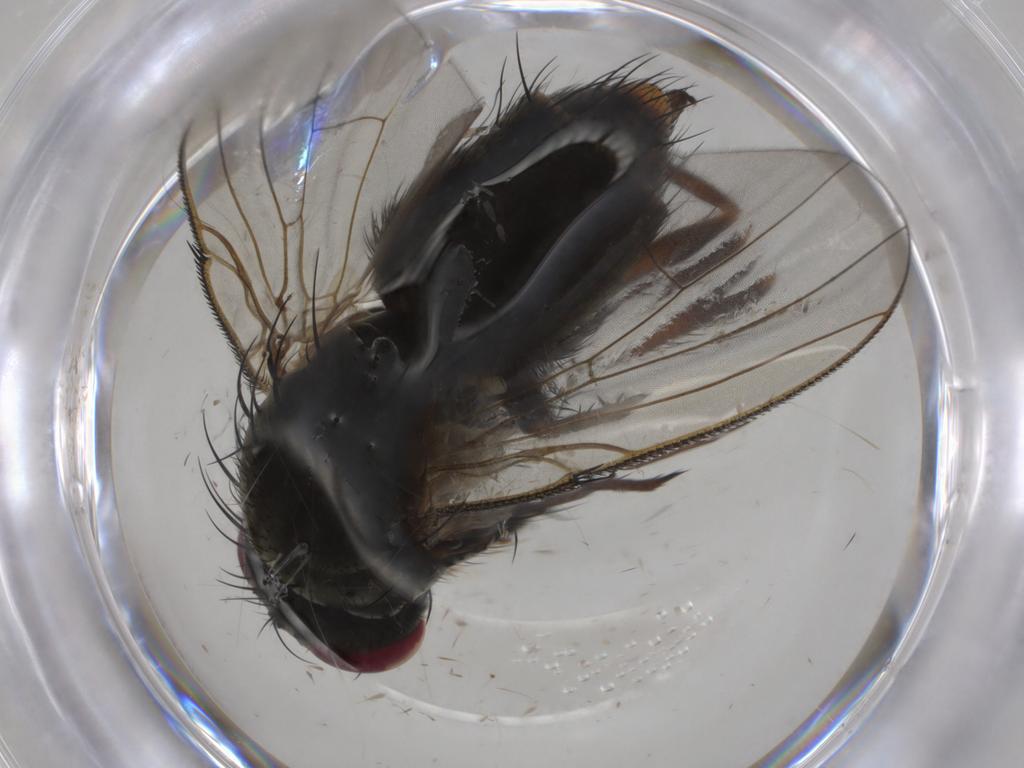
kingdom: Animalia
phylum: Arthropoda
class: Insecta
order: Diptera
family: Muscidae
